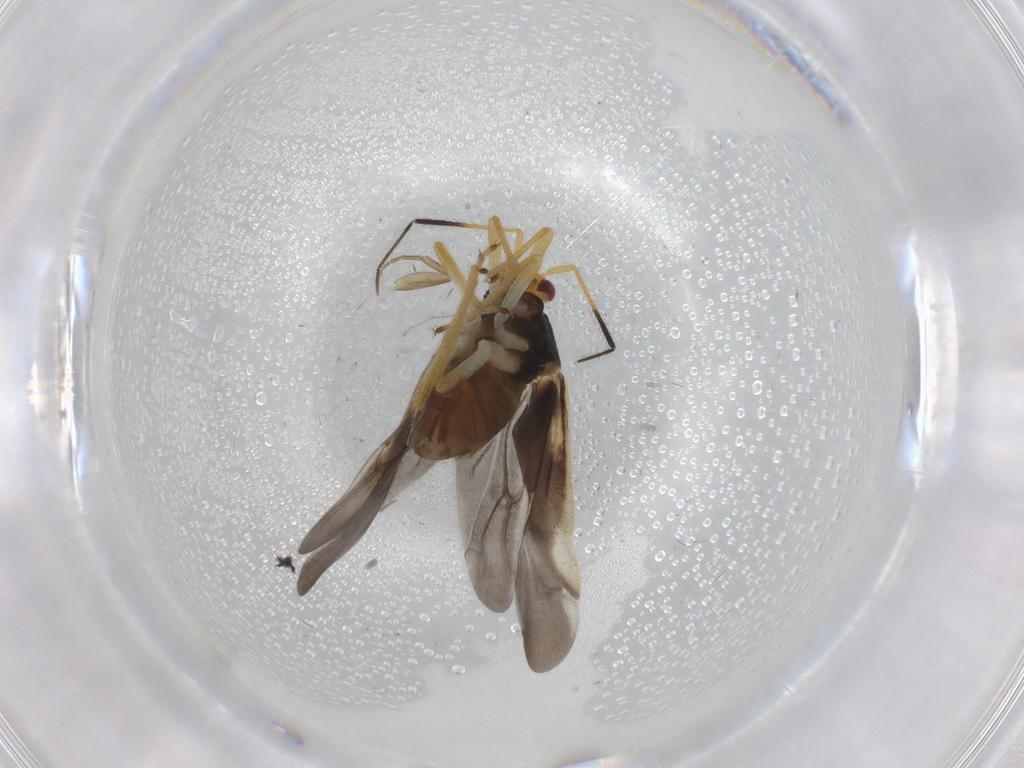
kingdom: Animalia
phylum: Arthropoda
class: Insecta
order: Hemiptera
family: Miridae
